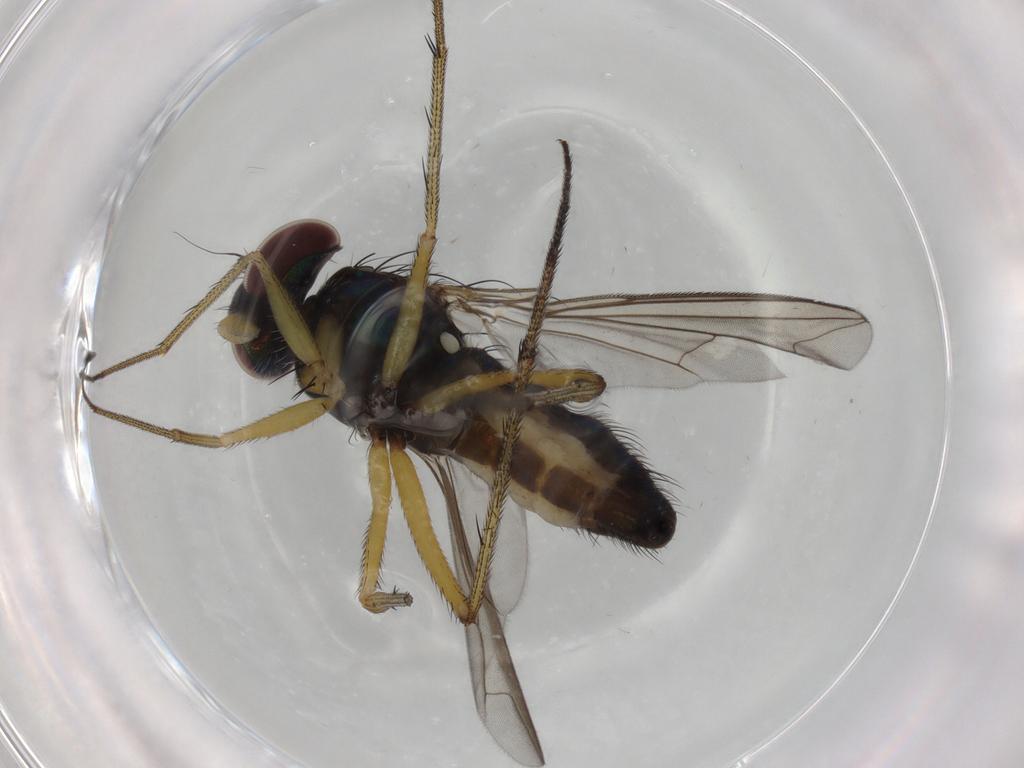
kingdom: Animalia
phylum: Arthropoda
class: Insecta
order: Diptera
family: Dolichopodidae
